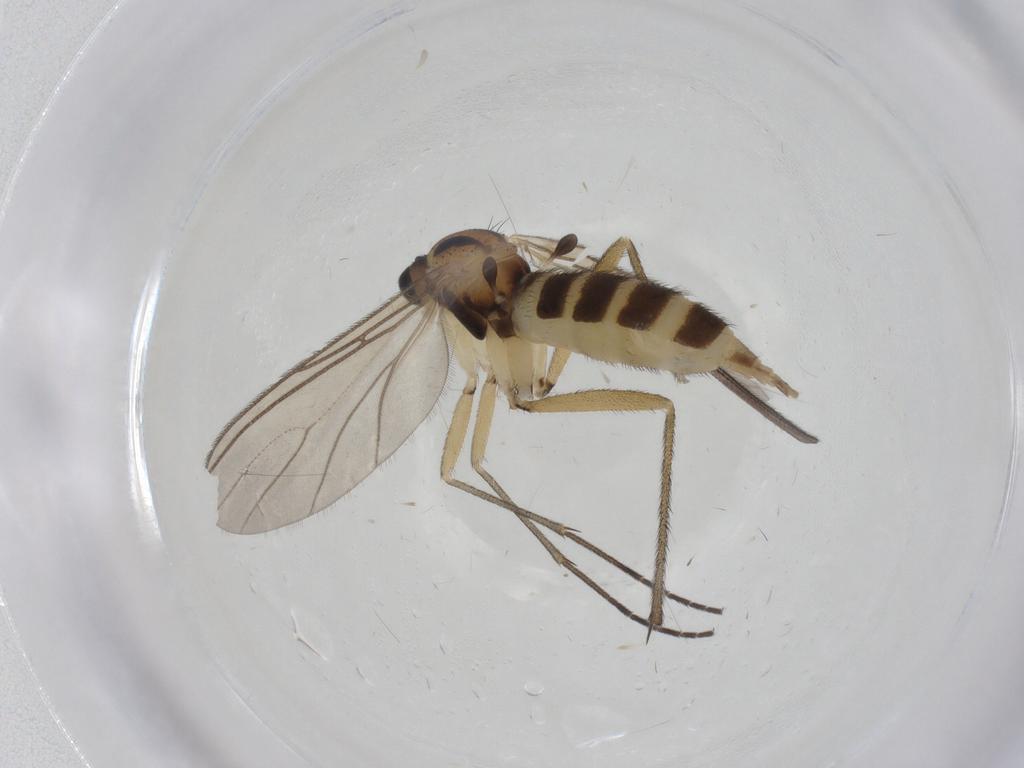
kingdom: Animalia
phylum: Arthropoda
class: Insecta
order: Diptera
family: Sciaridae
